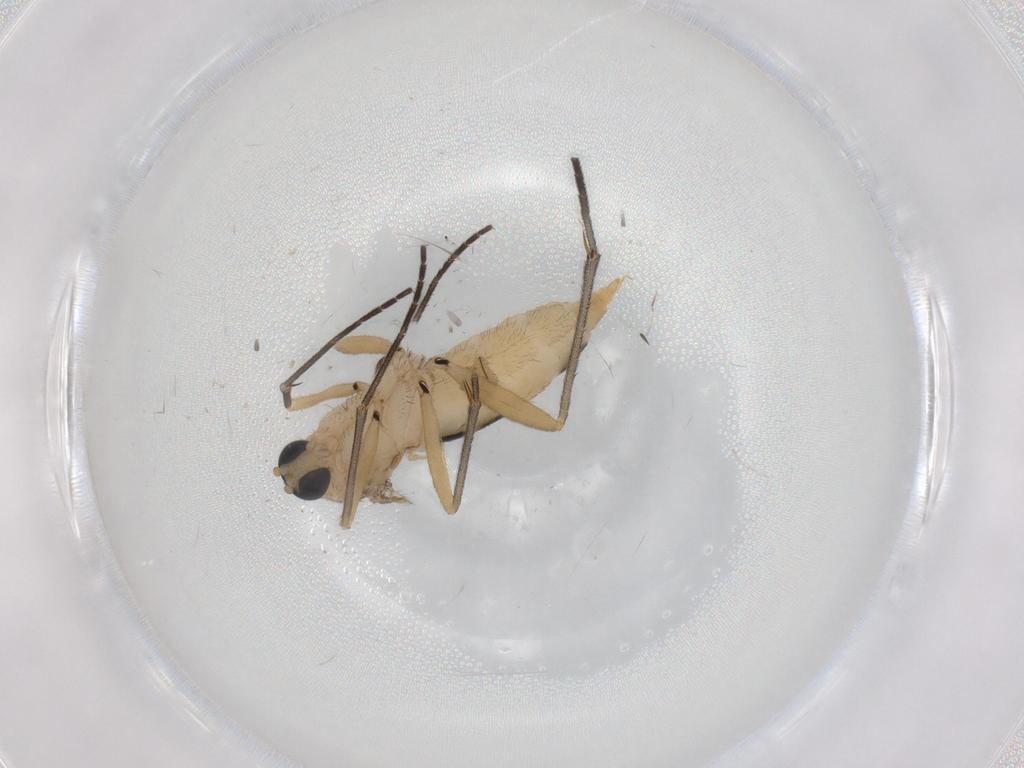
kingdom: Animalia
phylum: Arthropoda
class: Insecta
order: Diptera
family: Sciaridae
